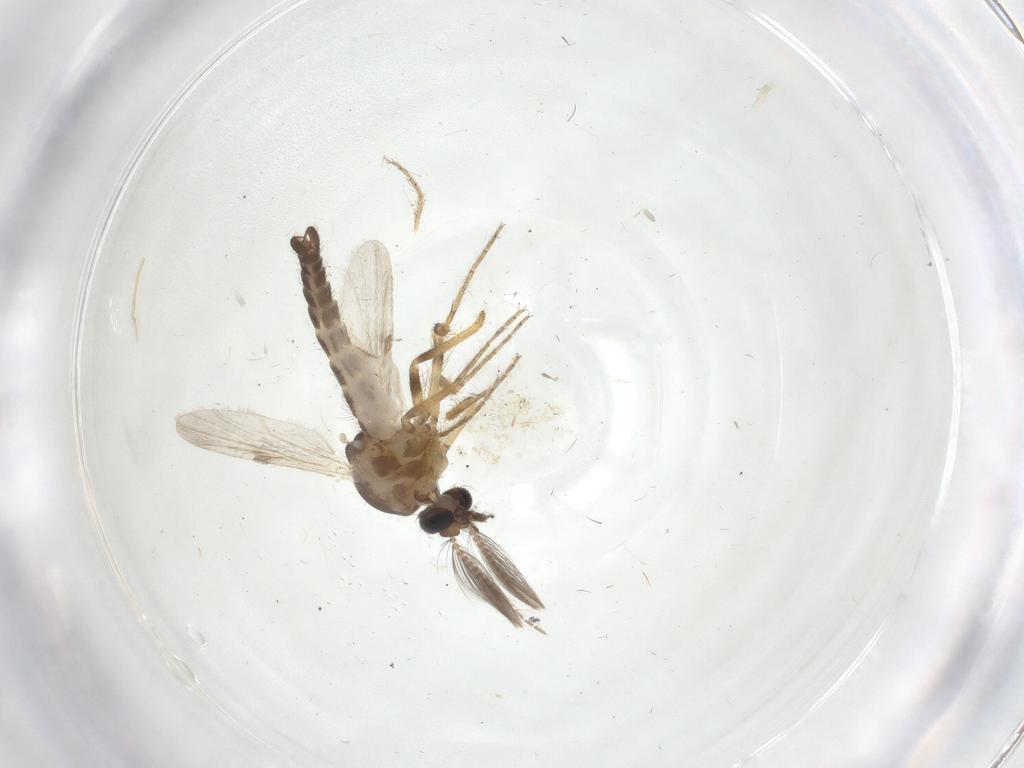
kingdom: Animalia
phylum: Arthropoda
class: Insecta
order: Diptera
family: Ceratopogonidae
